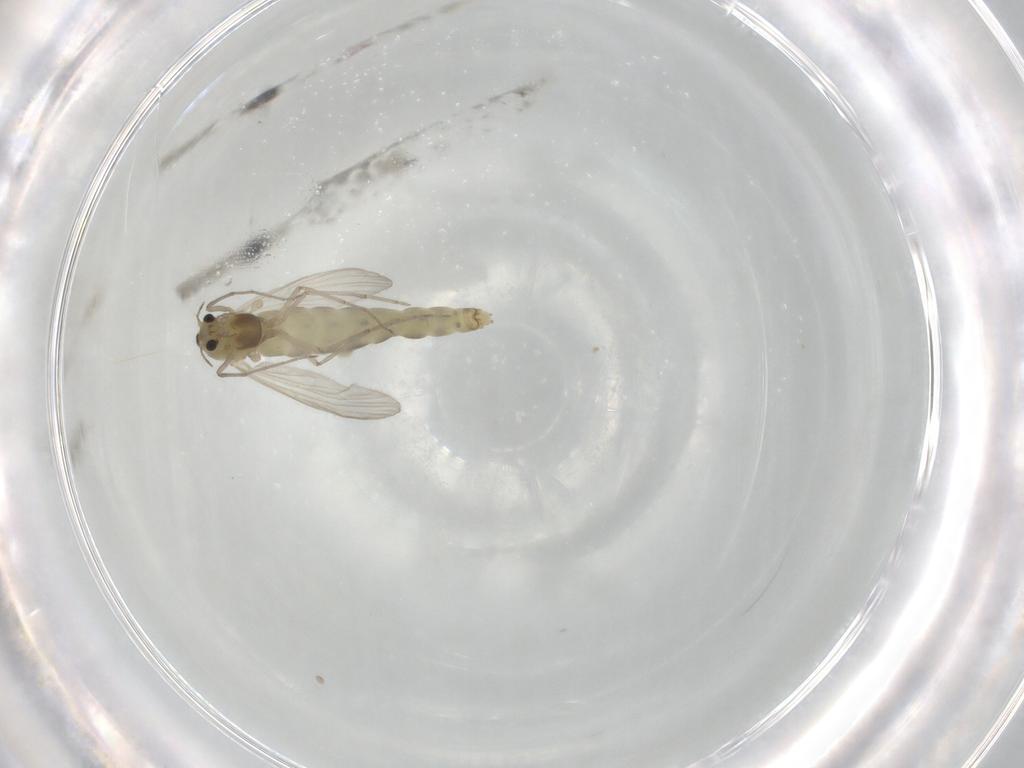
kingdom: Animalia
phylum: Arthropoda
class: Insecta
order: Diptera
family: Chironomidae
